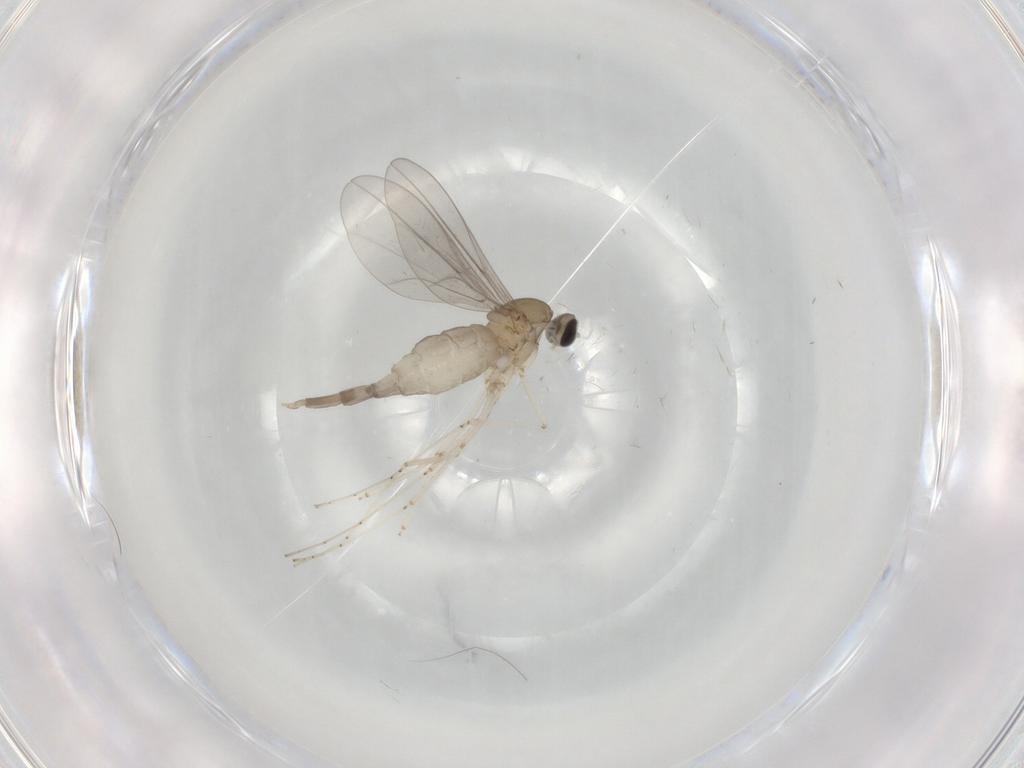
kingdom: Animalia
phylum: Arthropoda
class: Insecta
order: Diptera
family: Cecidomyiidae
